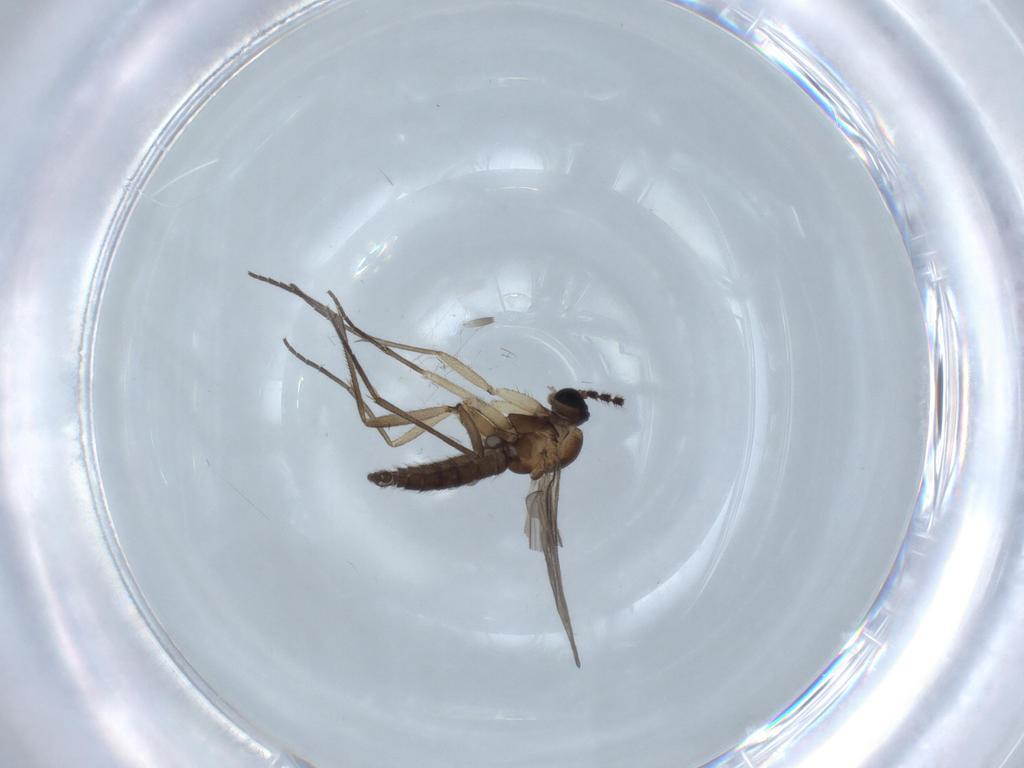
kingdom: Animalia
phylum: Arthropoda
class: Insecta
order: Diptera
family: Sciaridae
